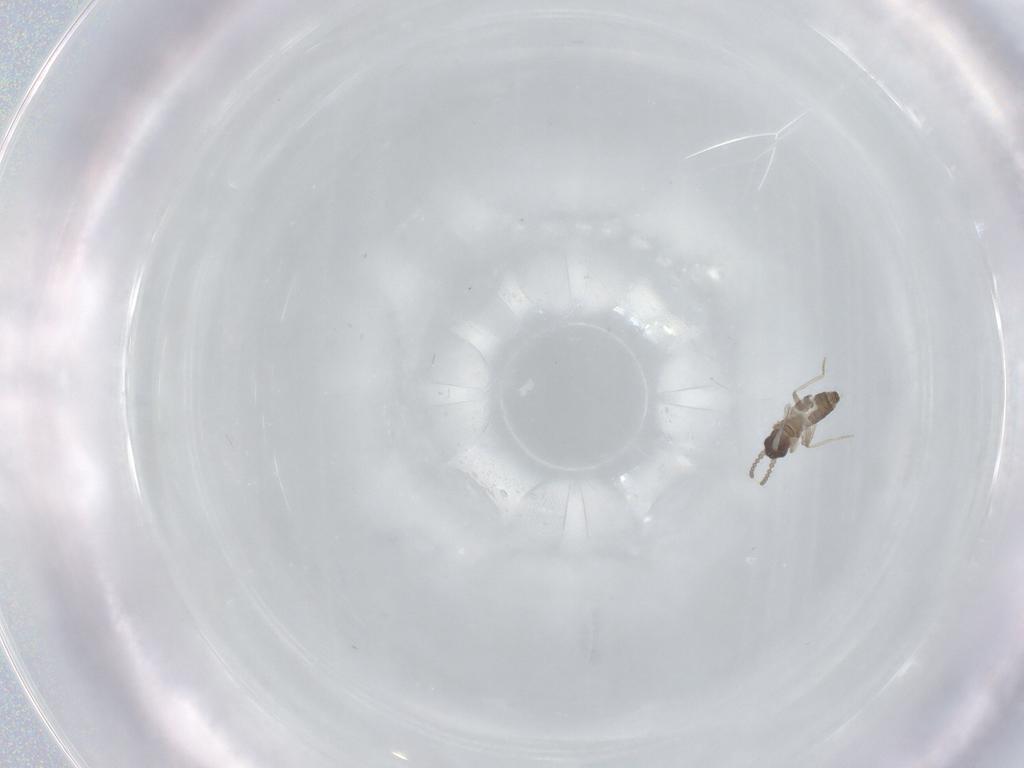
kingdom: Animalia
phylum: Arthropoda
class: Insecta
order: Diptera
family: Cecidomyiidae
